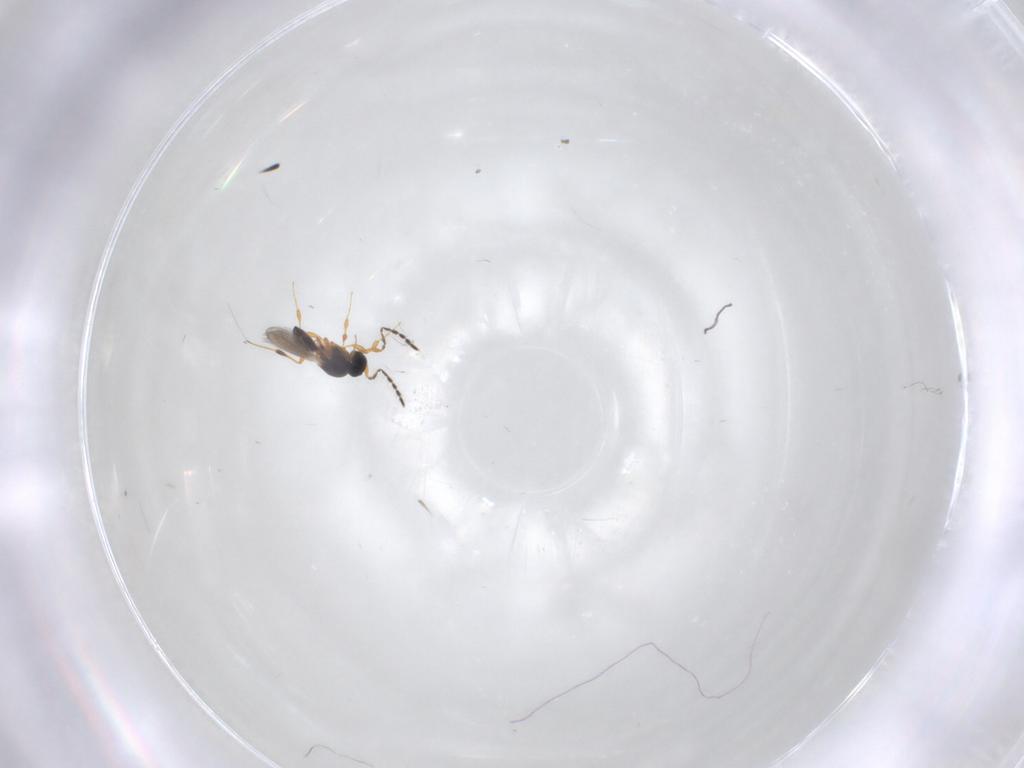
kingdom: Animalia
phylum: Arthropoda
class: Insecta
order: Hymenoptera
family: Platygastridae
